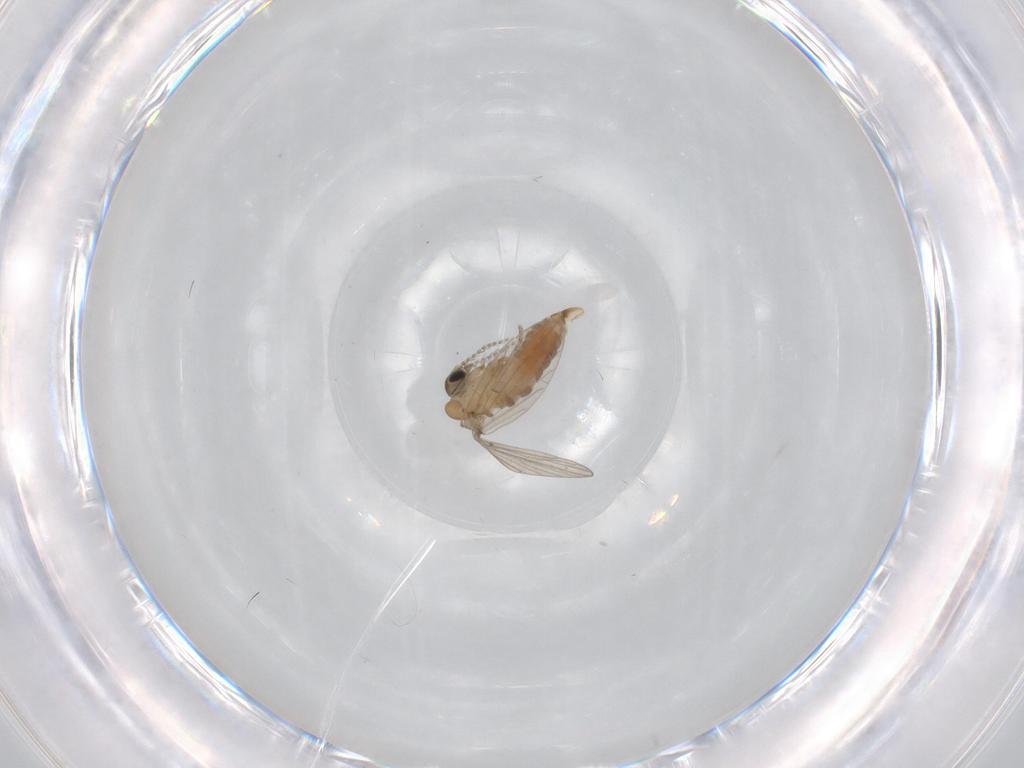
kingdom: Animalia
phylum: Arthropoda
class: Insecta
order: Diptera
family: Psychodidae
